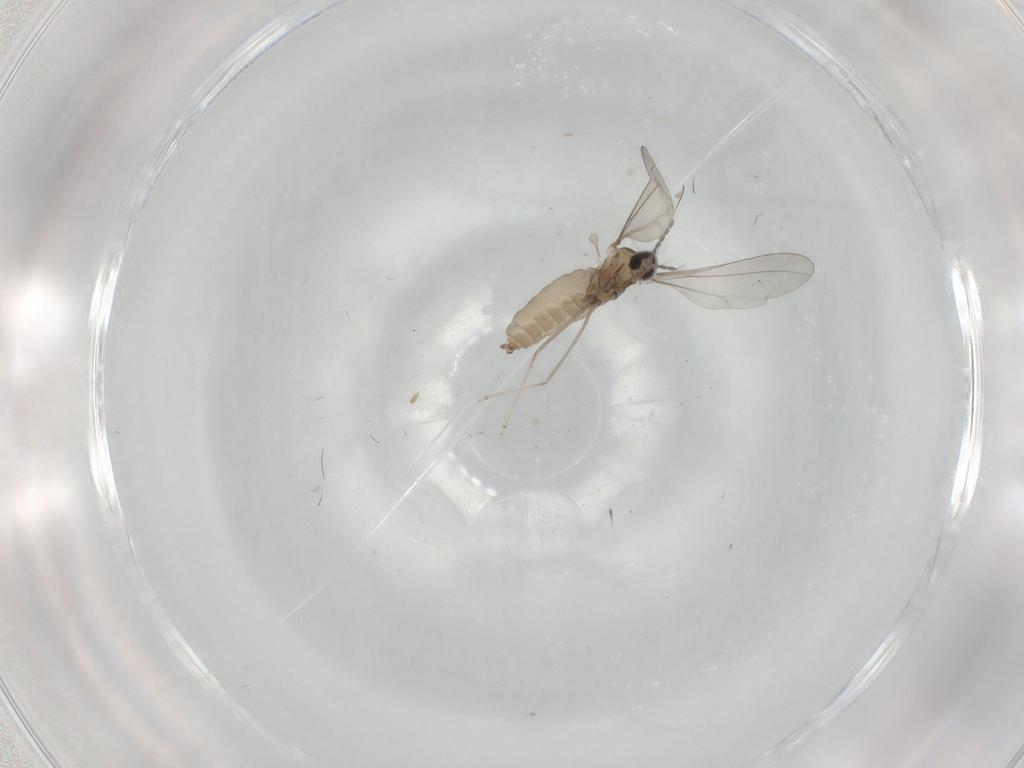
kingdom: Animalia
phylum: Arthropoda
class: Insecta
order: Diptera
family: Cecidomyiidae
